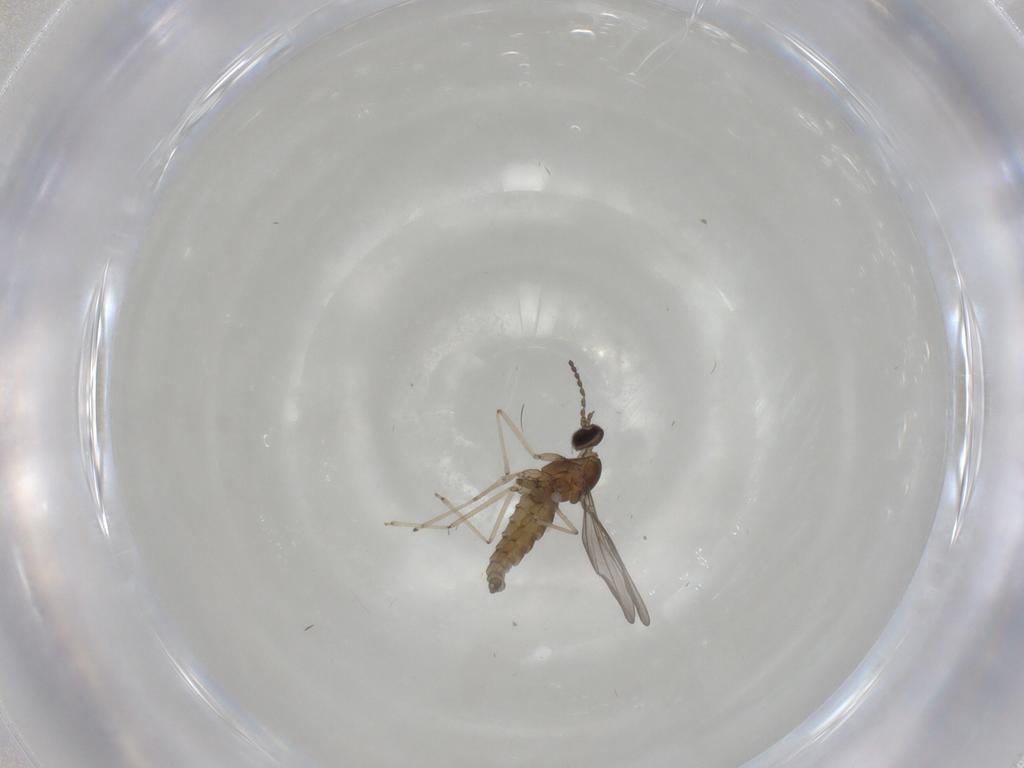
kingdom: Animalia
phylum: Arthropoda
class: Insecta
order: Diptera
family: Cecidomyiidae
